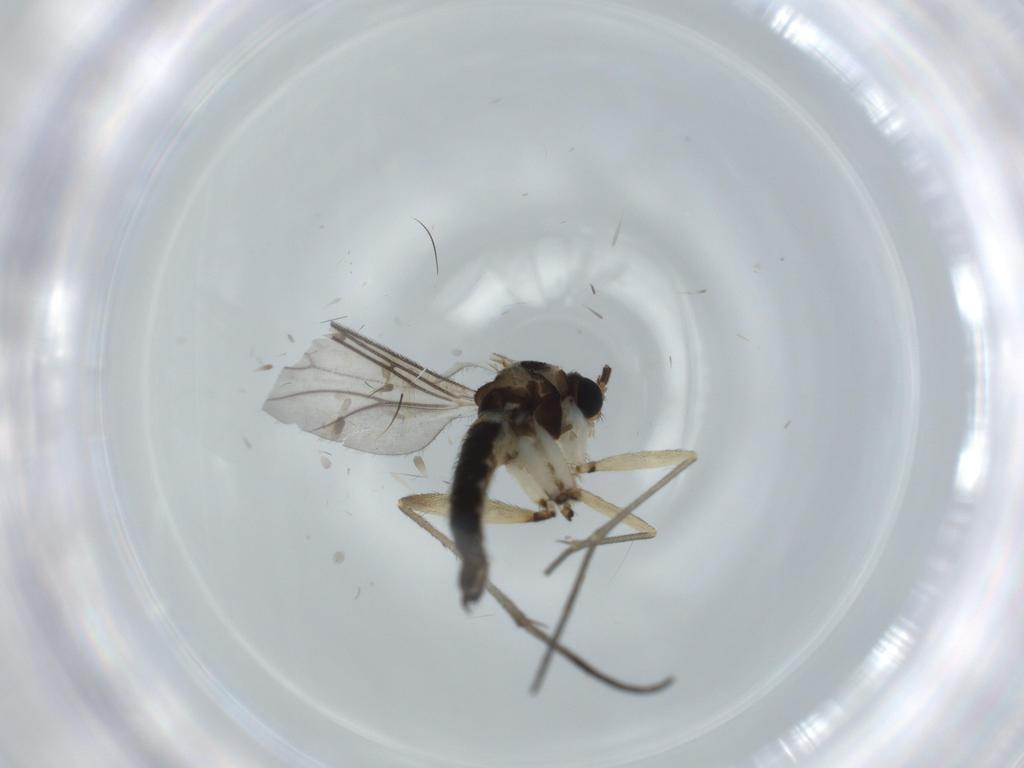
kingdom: Animalia
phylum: Arthropoda
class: Insecta
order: Diptera
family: Sciaridae
